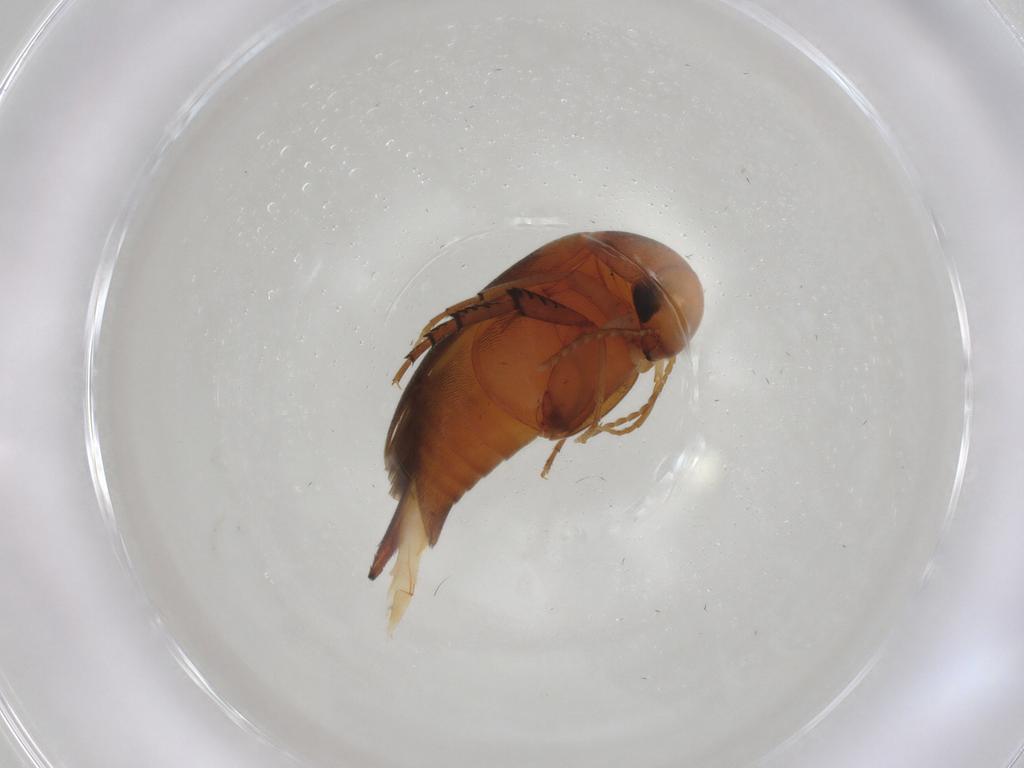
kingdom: Animalia
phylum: Arthropoda
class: Insecta
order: Coleoptera
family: Mordellidae
